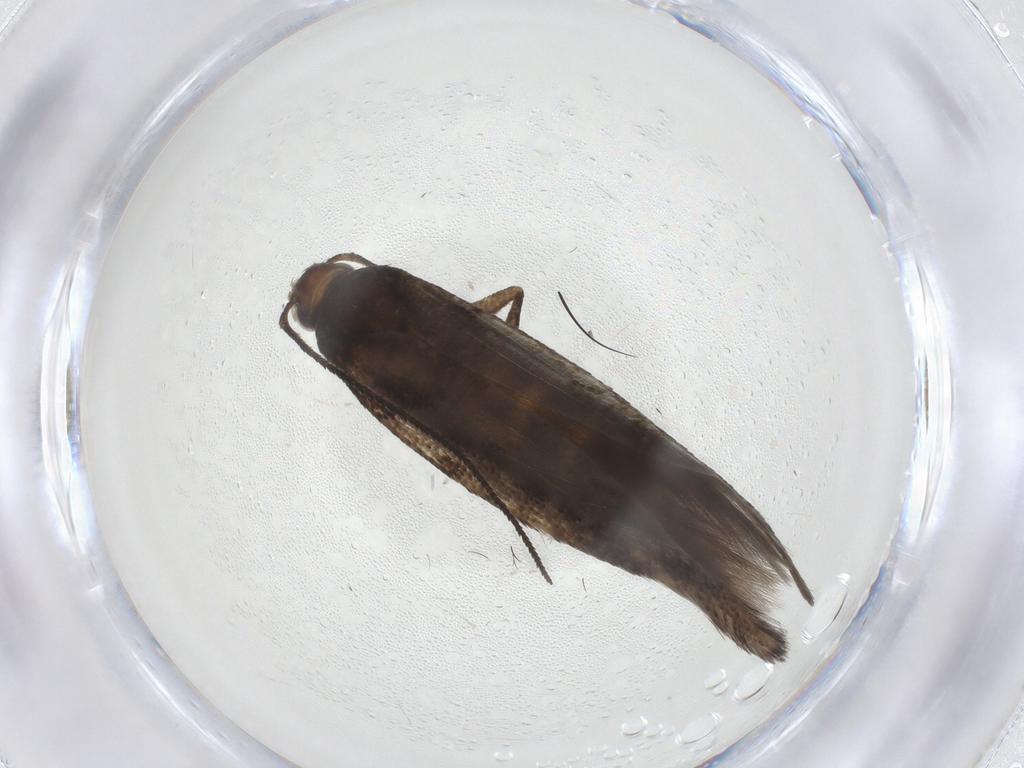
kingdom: Animalia
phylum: Arthropoda
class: Insecta
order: Lepidoptera
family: Gelechiidae
